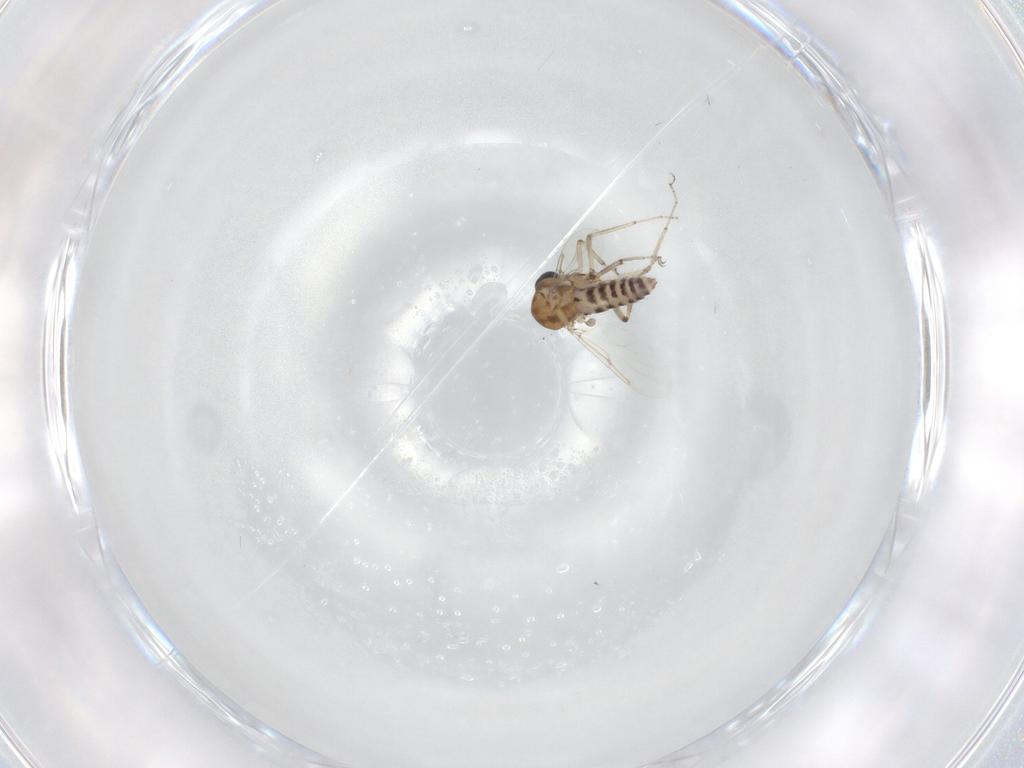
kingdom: Animalia
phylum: Arthropoda
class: Insecta
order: Diptera
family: Ceratopogonidae
